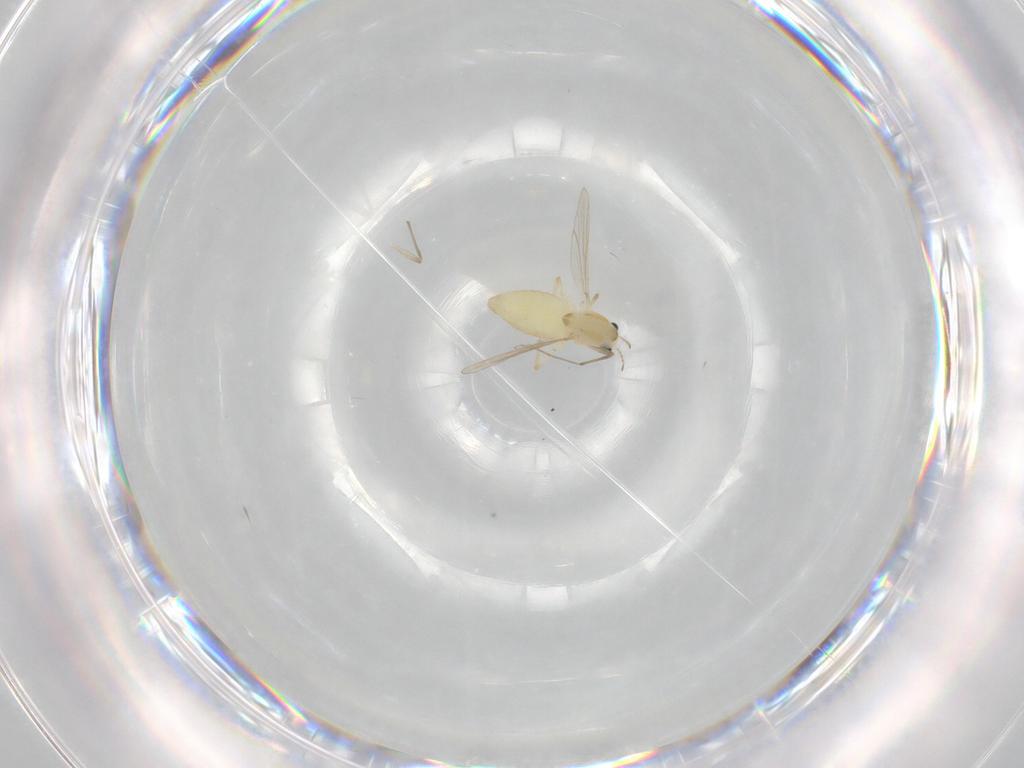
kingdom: Animalia
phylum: Arthropoda
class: Insecta
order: Diptera
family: Chironomidae
